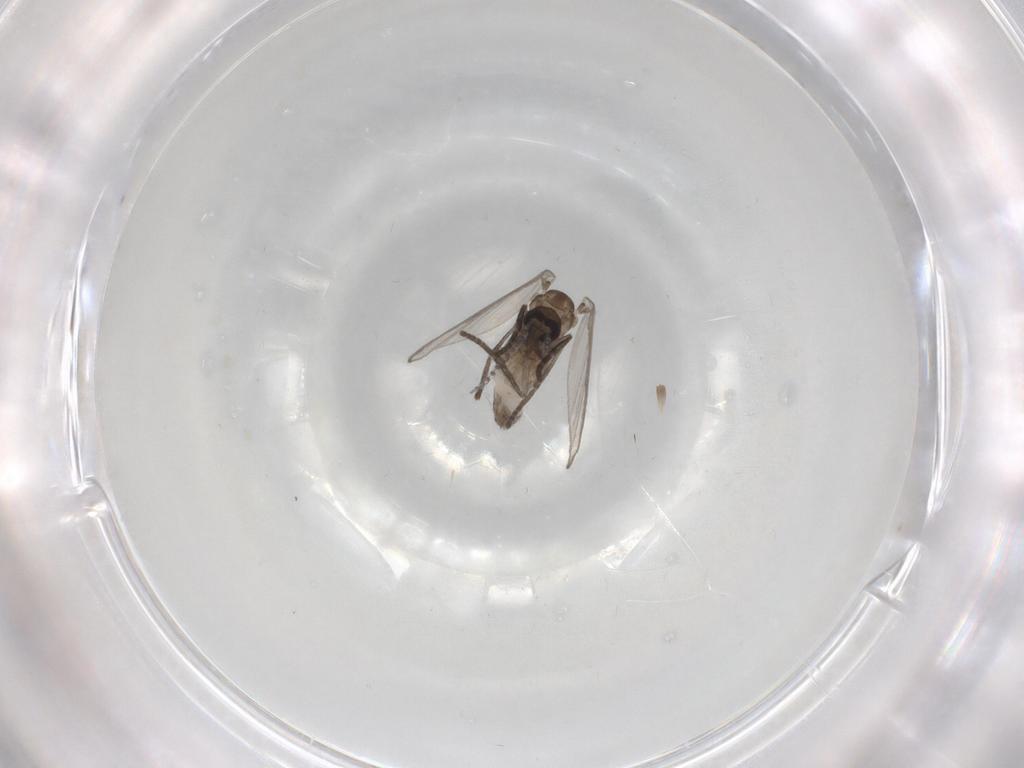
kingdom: Animalia
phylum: Arthropoda
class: Insecta
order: Diptera
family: Psychodidae
